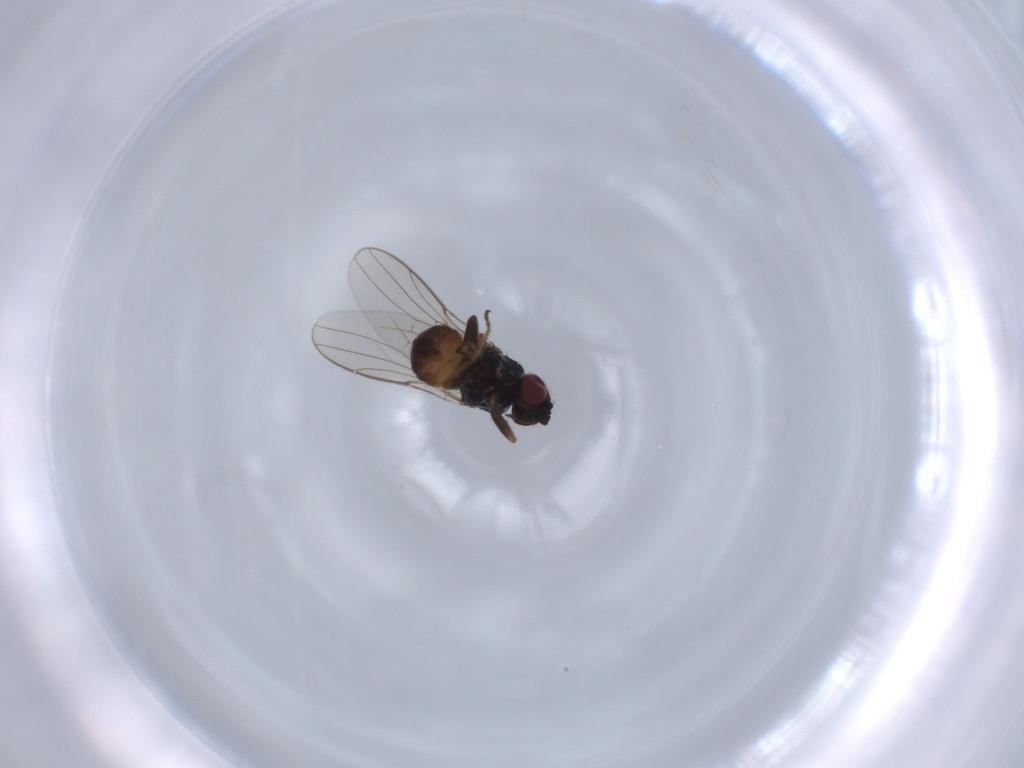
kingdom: Animalia
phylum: Arthropoda
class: Insecta
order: Diptera
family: Chloropidae
